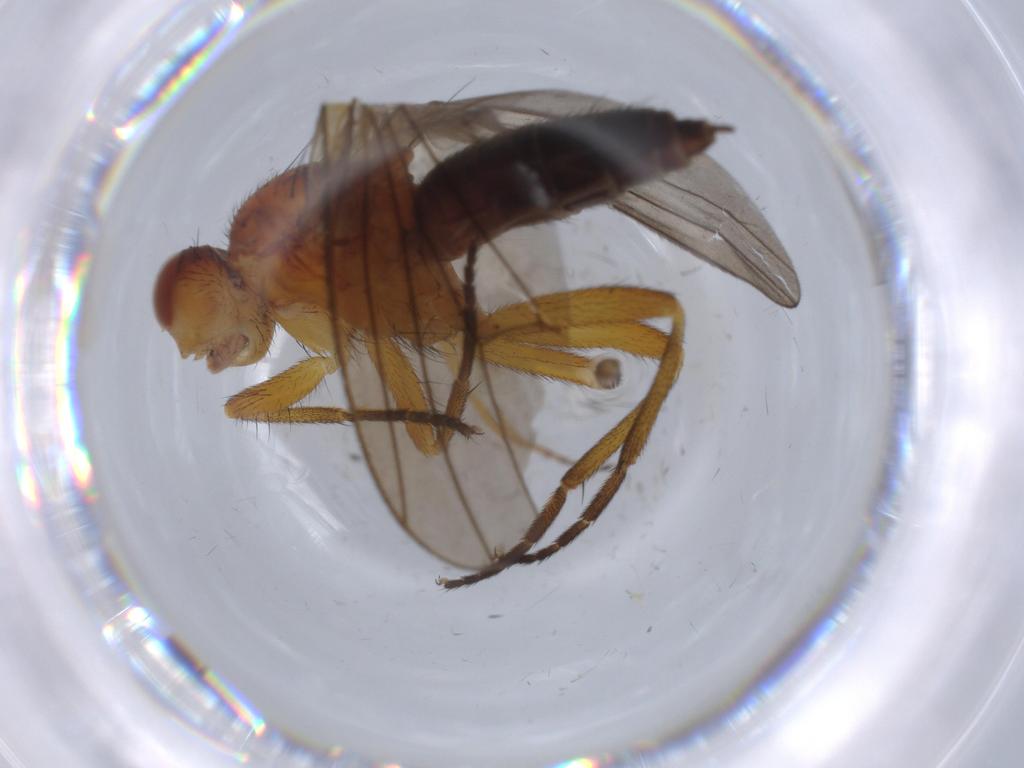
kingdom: Animalia
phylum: Arthropoda
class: Insecta
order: Diptera
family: Heleomyzidae
